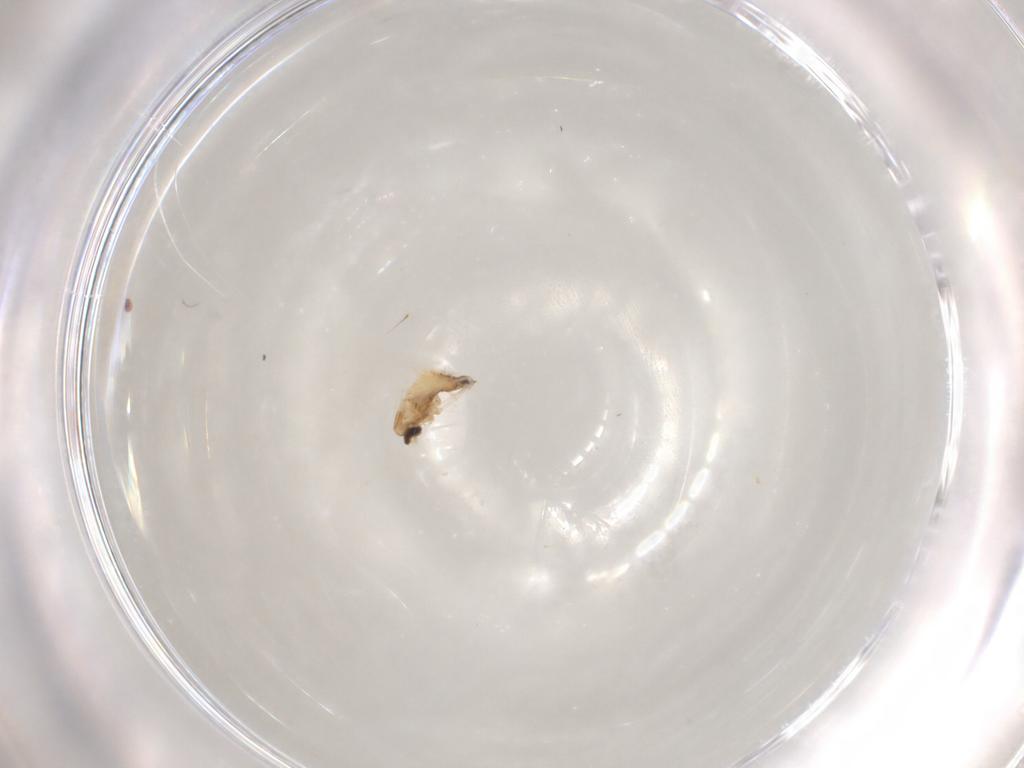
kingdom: Animalia
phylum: Arthropoda
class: Insecta
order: Diptera
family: Cecidomyiidae
